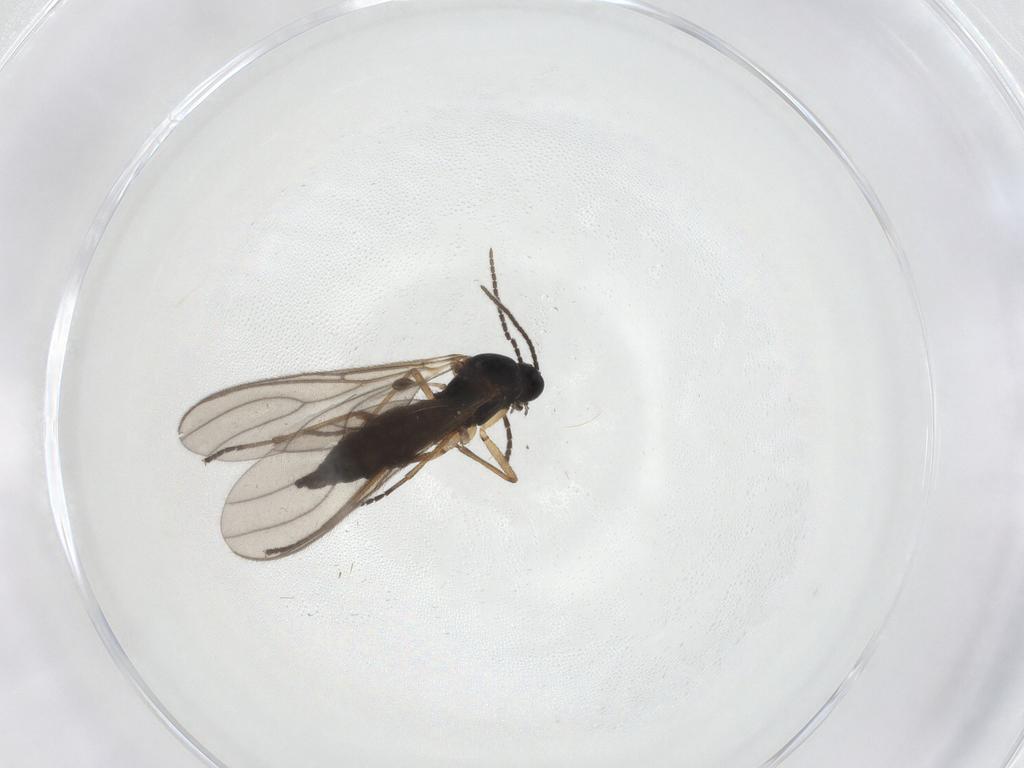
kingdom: Animalia
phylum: Arthropoda
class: Insecta
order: Diptera
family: Sciaridae
